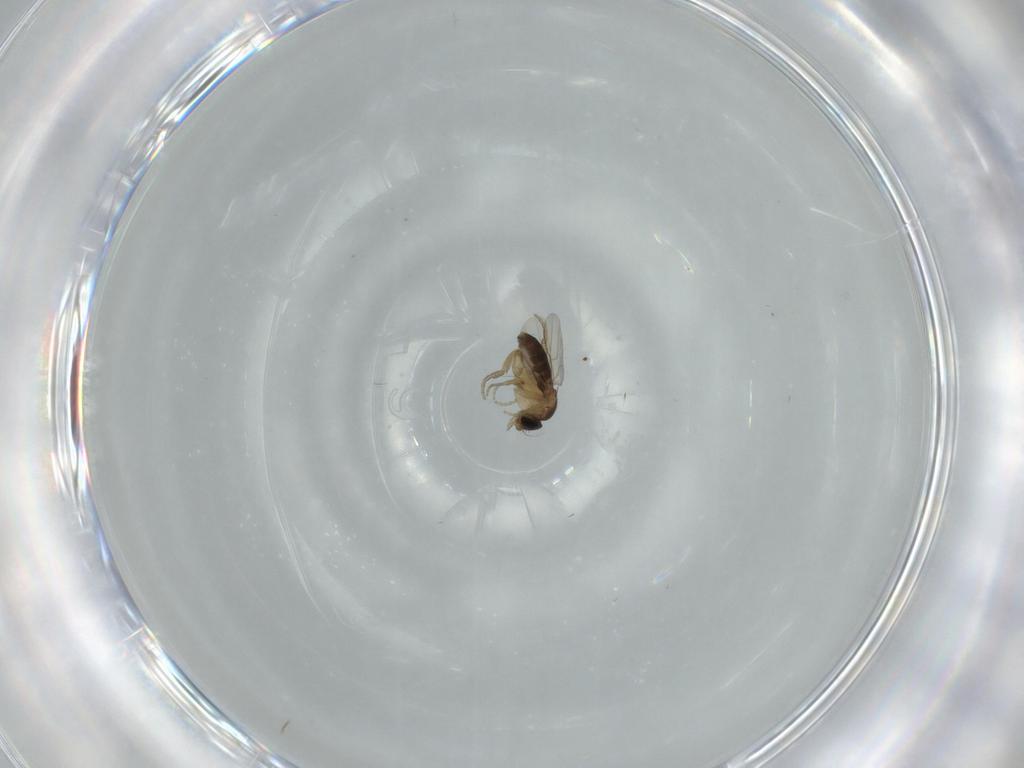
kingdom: Animalia
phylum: Arthropoda
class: Insecta
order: Diptera
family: Phoridae
